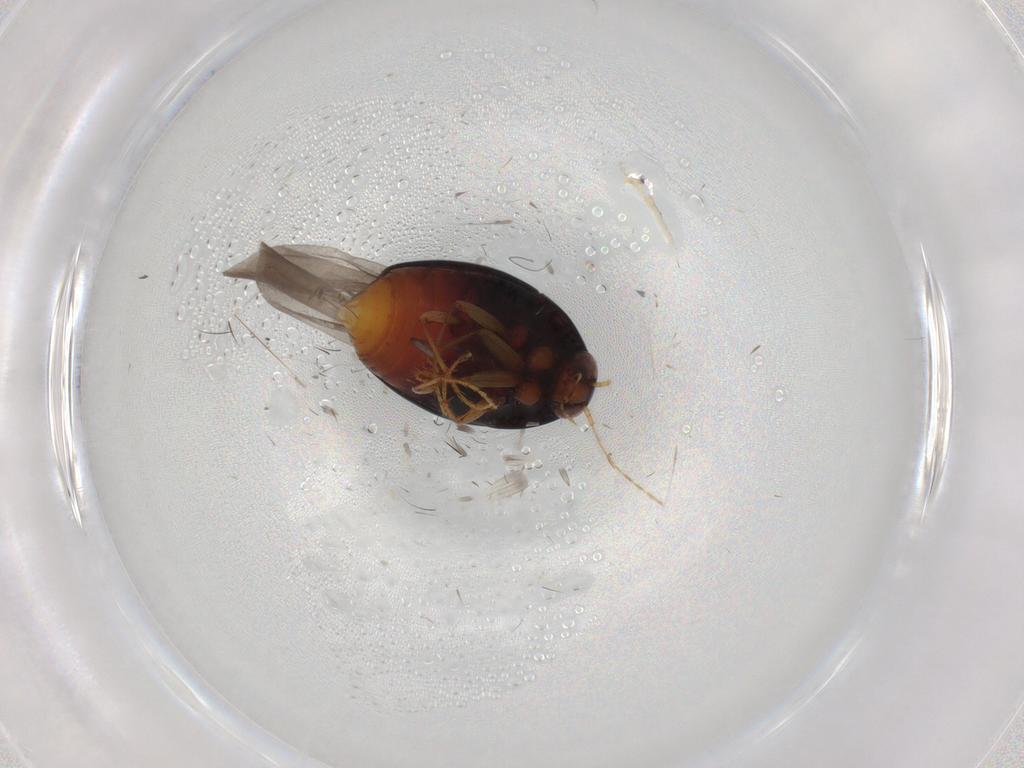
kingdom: Animalia
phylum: Arthropoda
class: Insecta
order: Coleoptera
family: Staphylinidae
